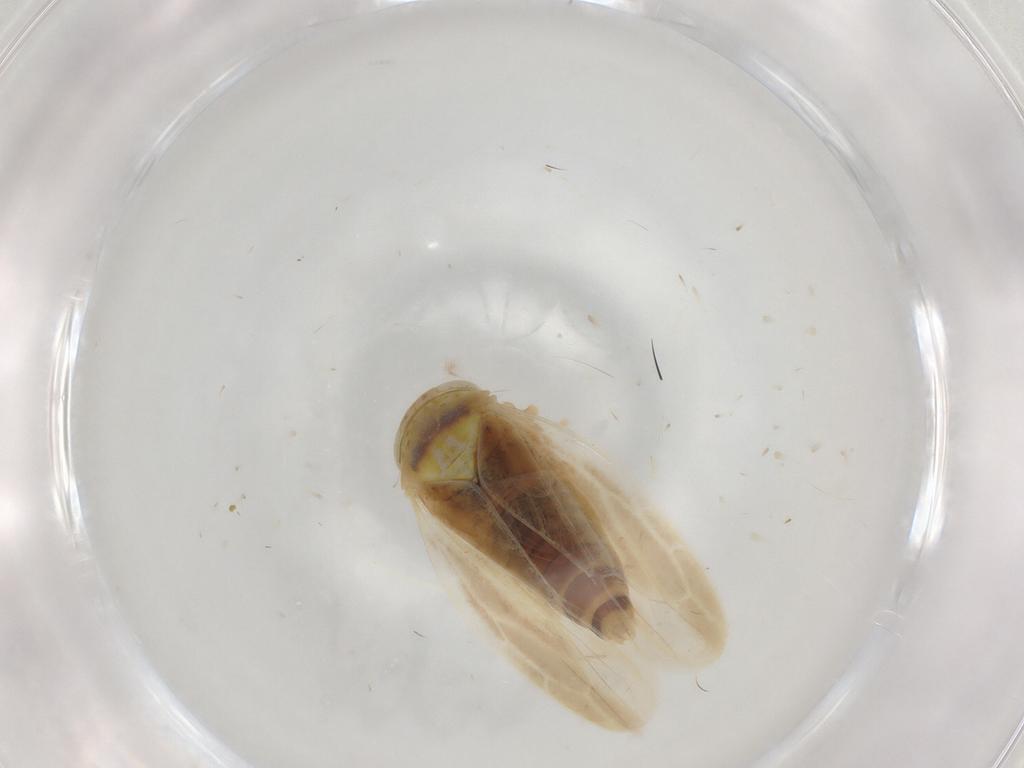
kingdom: Animalia
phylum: Arthropoda
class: Insecta
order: Hemiptera
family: Cicadellidae
